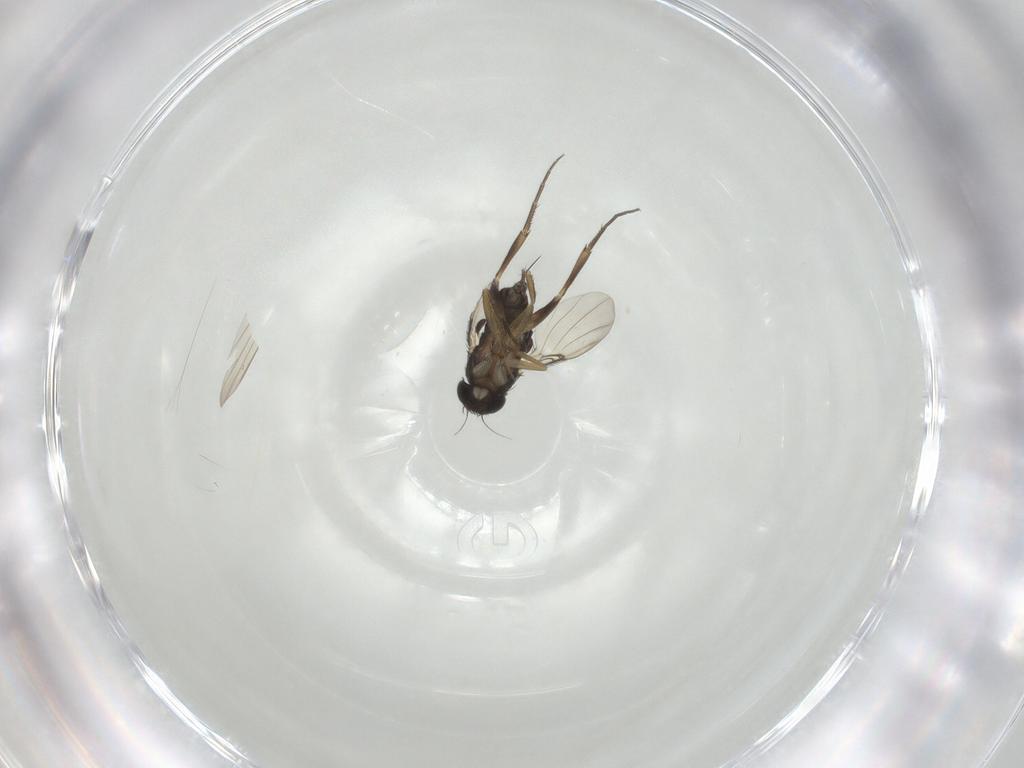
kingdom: Animalia
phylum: Arthropoda
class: Insecta
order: Diptera
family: Phoridae
